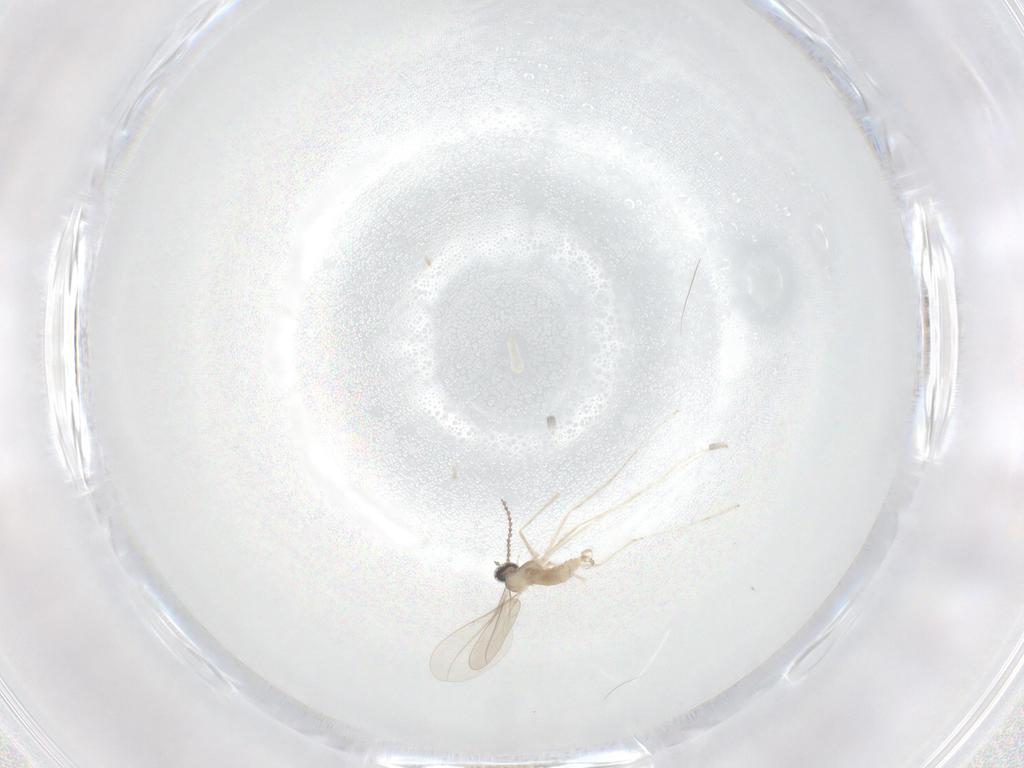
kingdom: Animalia
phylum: Arthropoda
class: Insecta
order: Diptera
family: Cecidomyiidae
